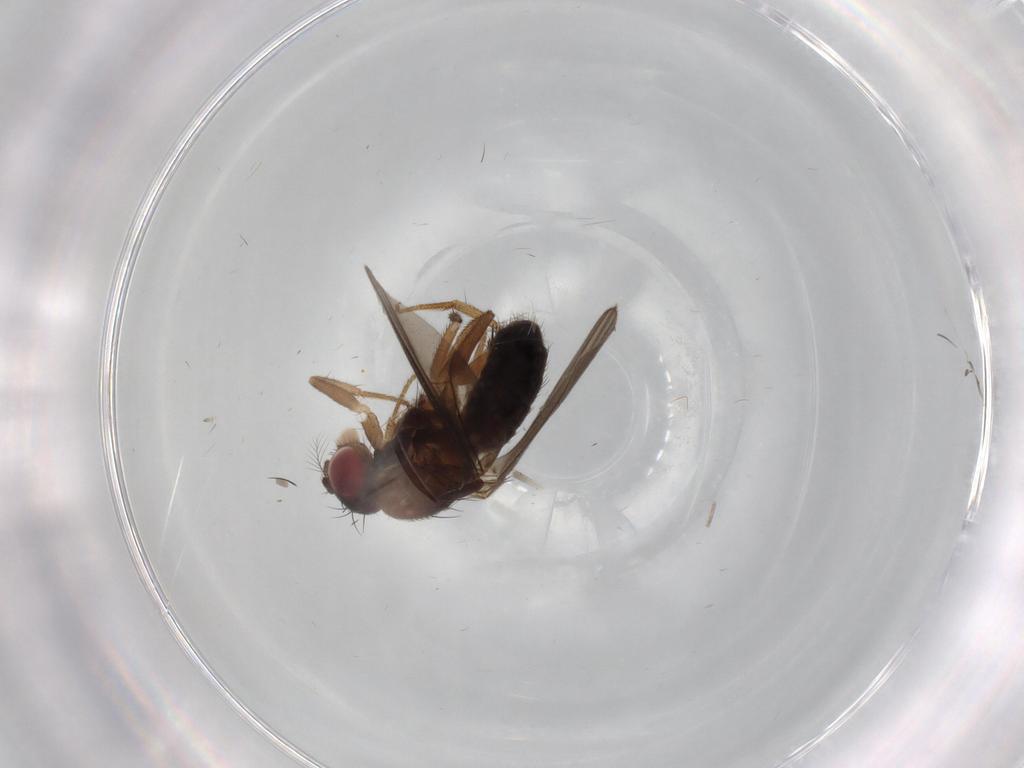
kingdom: Animalia
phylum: Arthropoda
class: Insecta
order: Diptera
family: Drosophilidae
